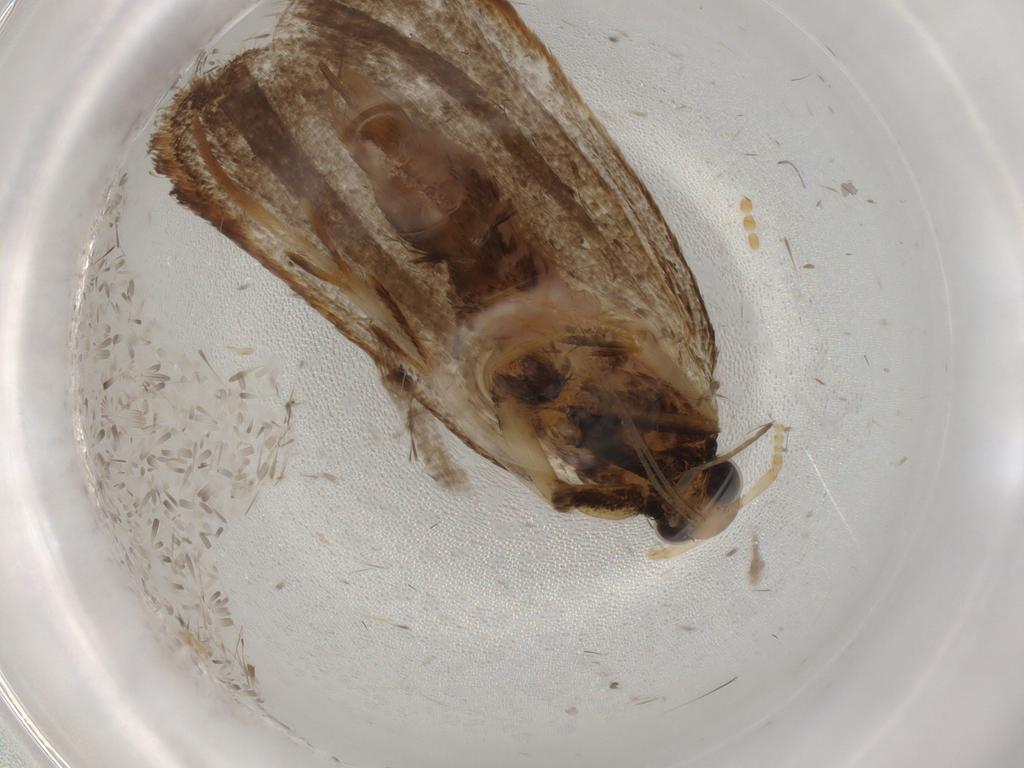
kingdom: Animalia
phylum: Arthropoda
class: Insecta
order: Lepidoptera
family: Lecithoceridae
